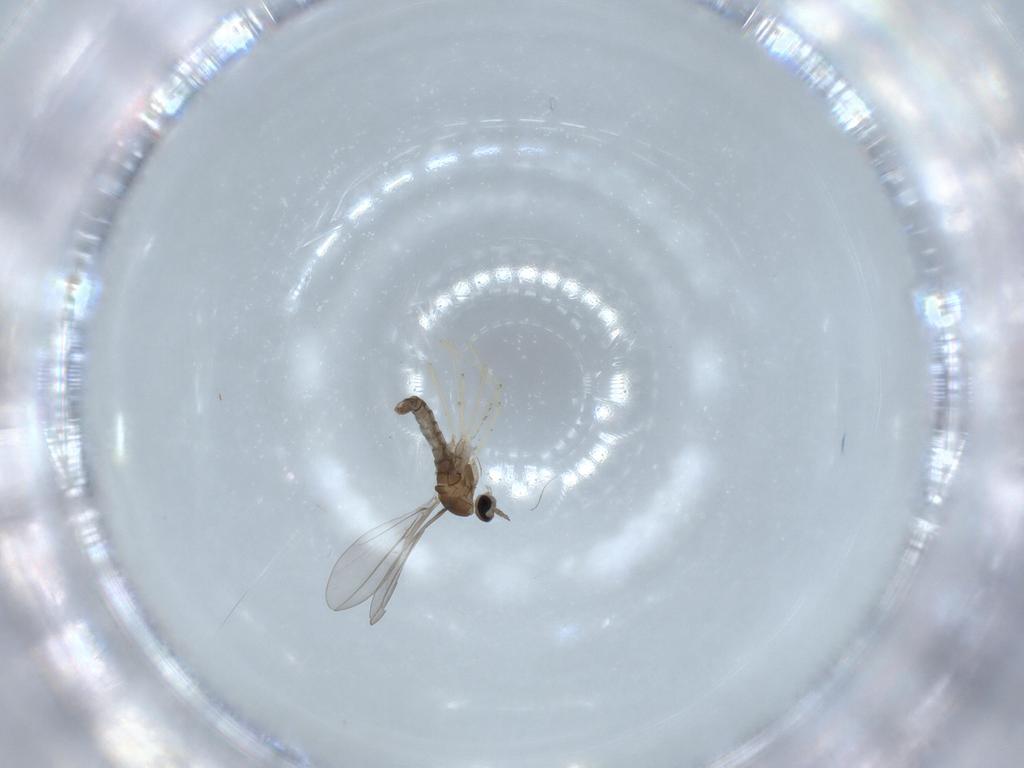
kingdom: Animalia
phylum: Arthropoda
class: Insecta
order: Diptera
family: Cecidomyiidae
